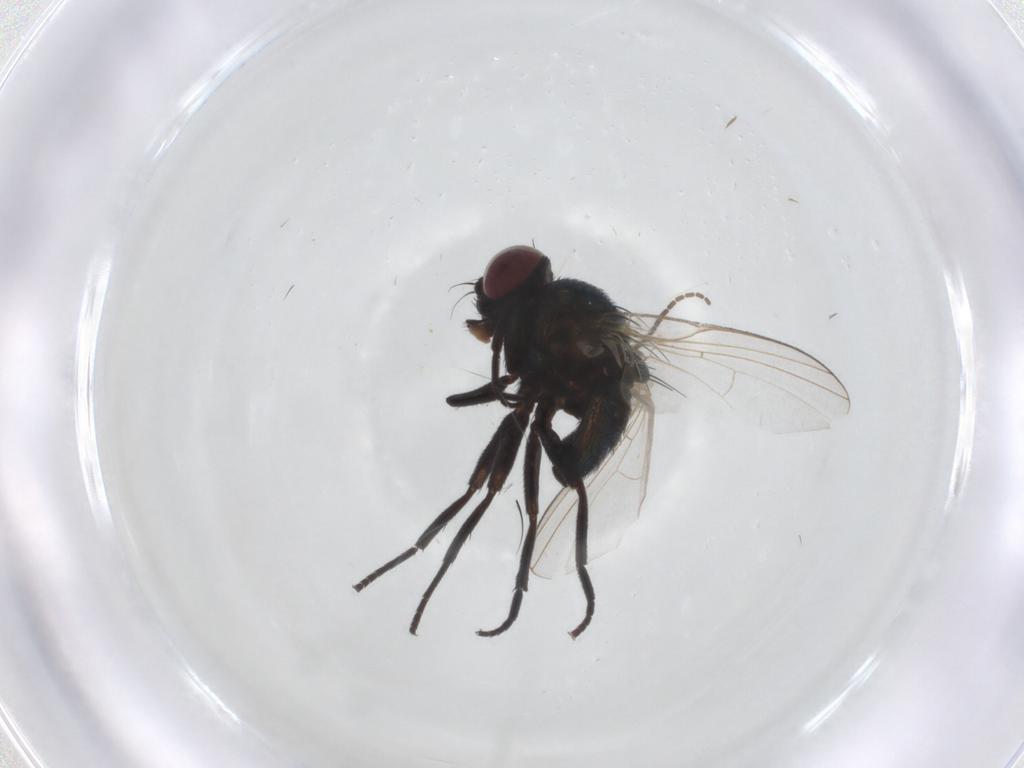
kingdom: Animalia
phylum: Arthropoda
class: Insecta
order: Diptera
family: Sciaridae
